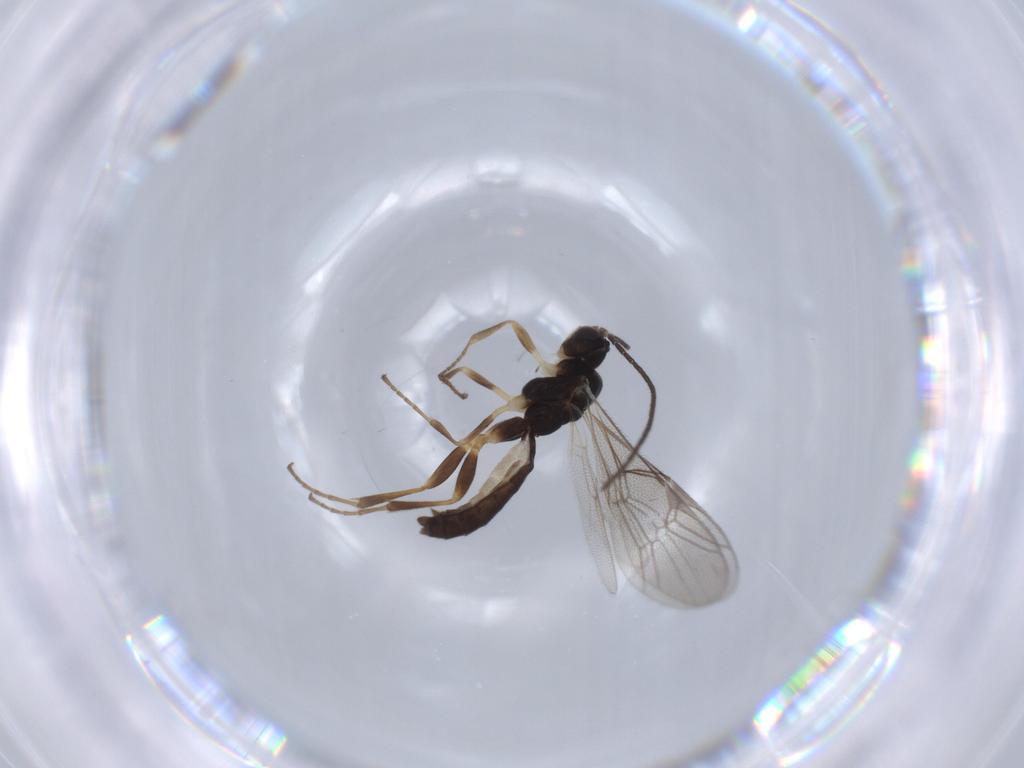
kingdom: Animalia
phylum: Arthropoda
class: Insecta
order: Hymenoptera
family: Ichneumonidae
